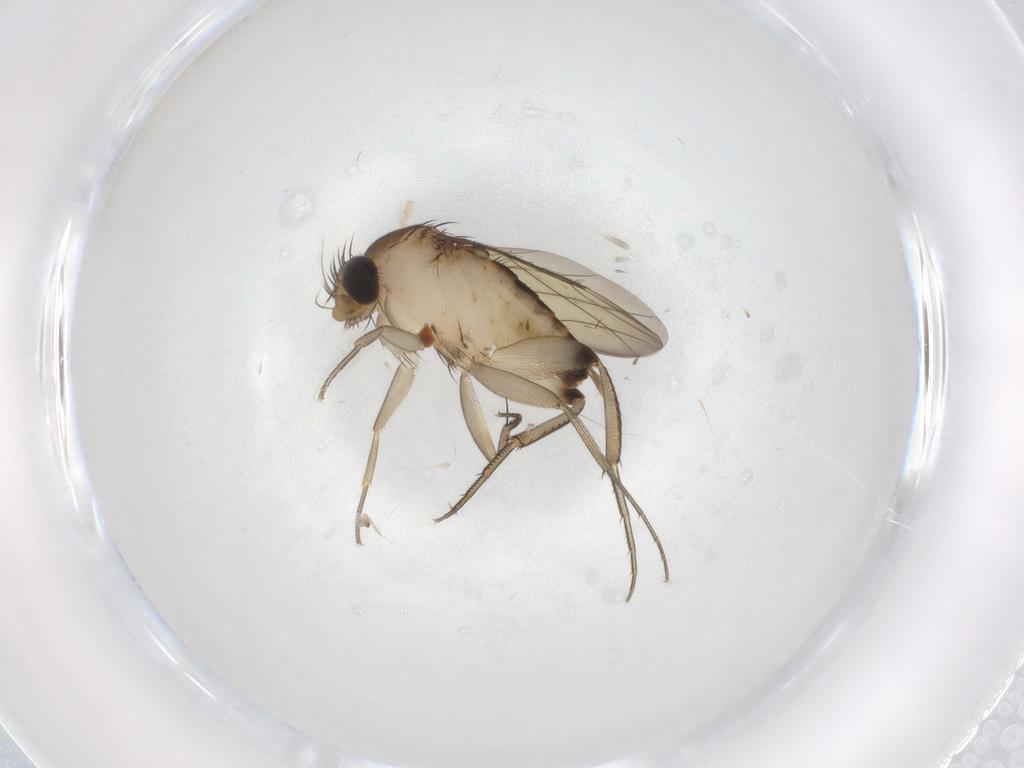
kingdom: Animalia
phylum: Arthropoda
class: Insecta
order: Diptera
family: Phoridae
